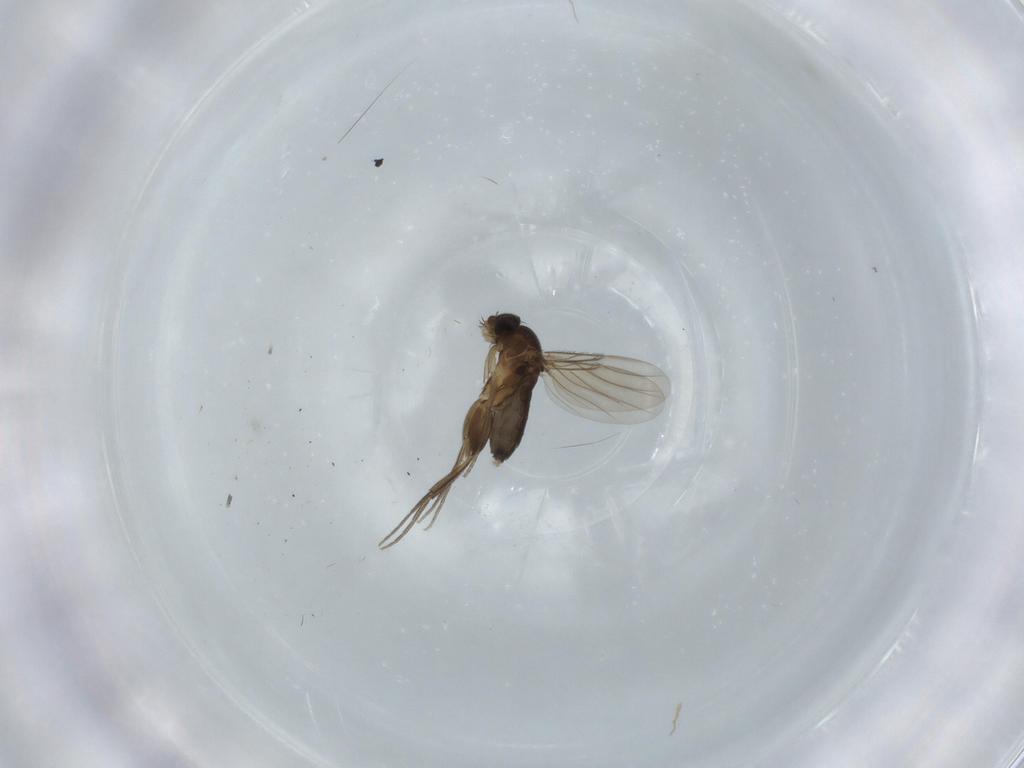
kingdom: Animalia
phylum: Arthropoda
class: Insecta
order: Diptera
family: Phoridae
